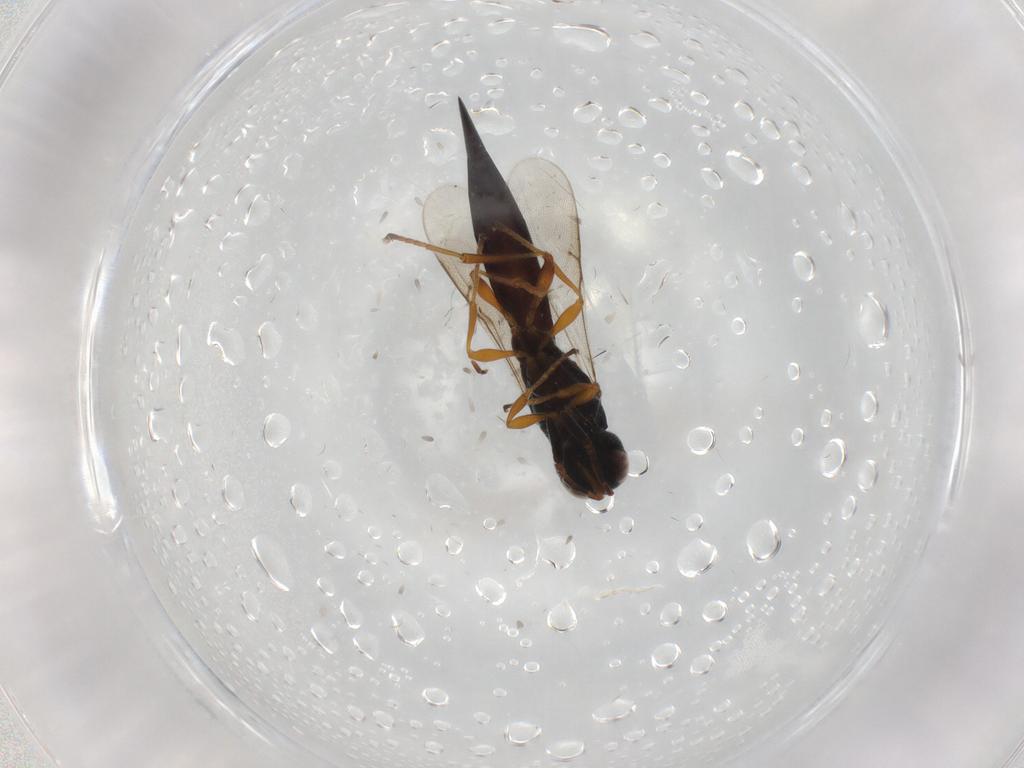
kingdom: Animalia
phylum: Arthropoda
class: Insecta
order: Hymenoptera
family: Scelionidae
